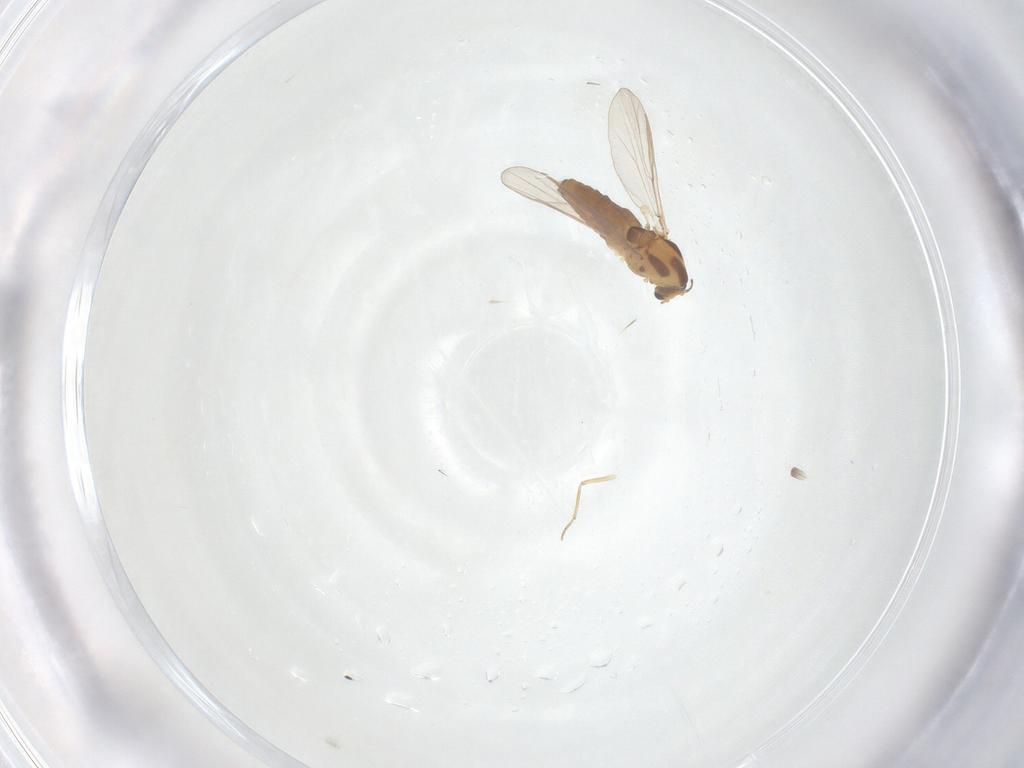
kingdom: Animalia
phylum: Arthropoda
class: Insecta
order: Diptera
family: Chironomidae
